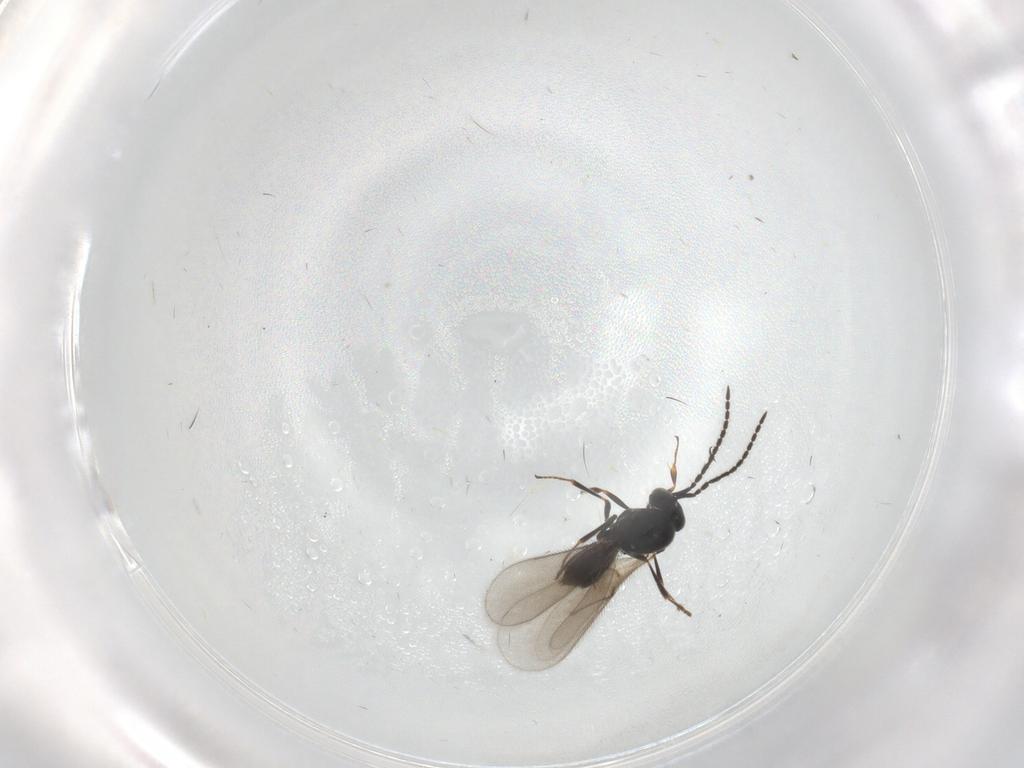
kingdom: Animalia
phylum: Arthropoda
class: Insecta
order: Hymenoptera
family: Scelionidae
